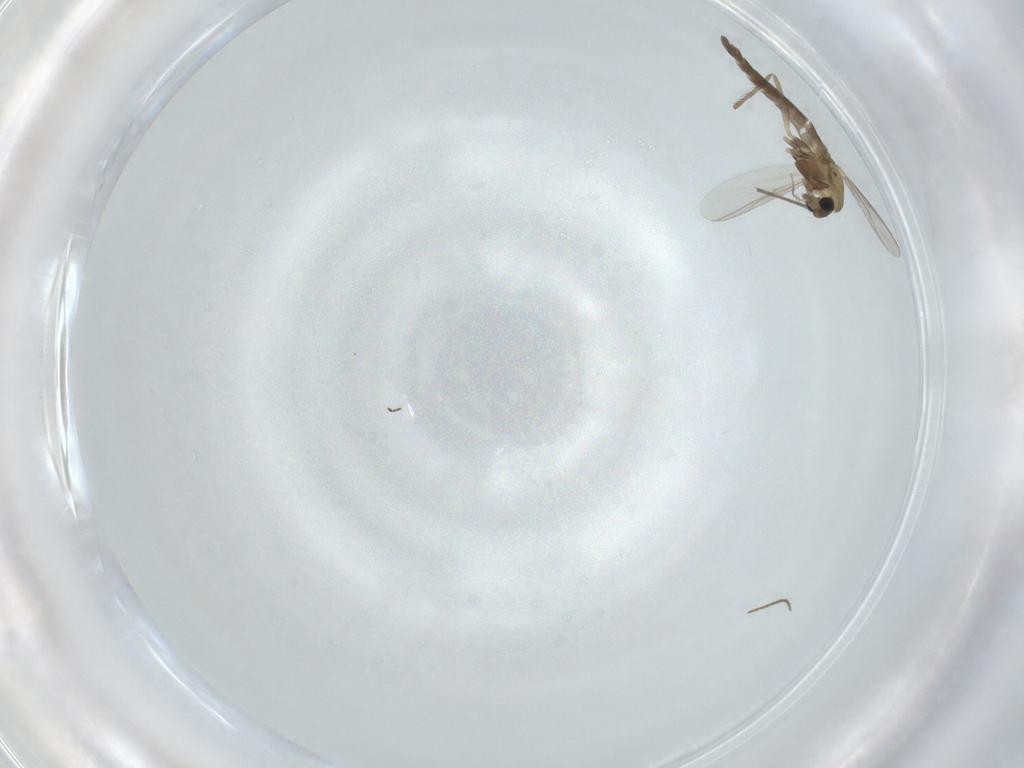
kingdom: Animalia
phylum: Arthropoda
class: Insecta
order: Diptera
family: Chironomidae
